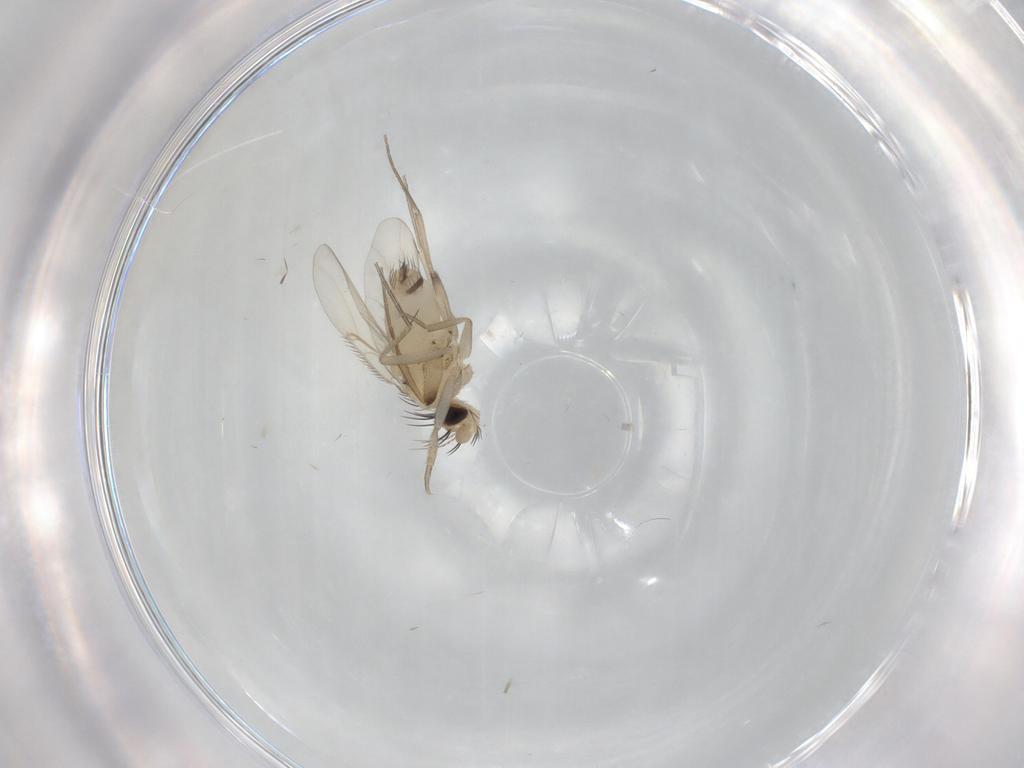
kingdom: Animalia
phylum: Arthropoda
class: Insecta
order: Diptera
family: Phoridae
